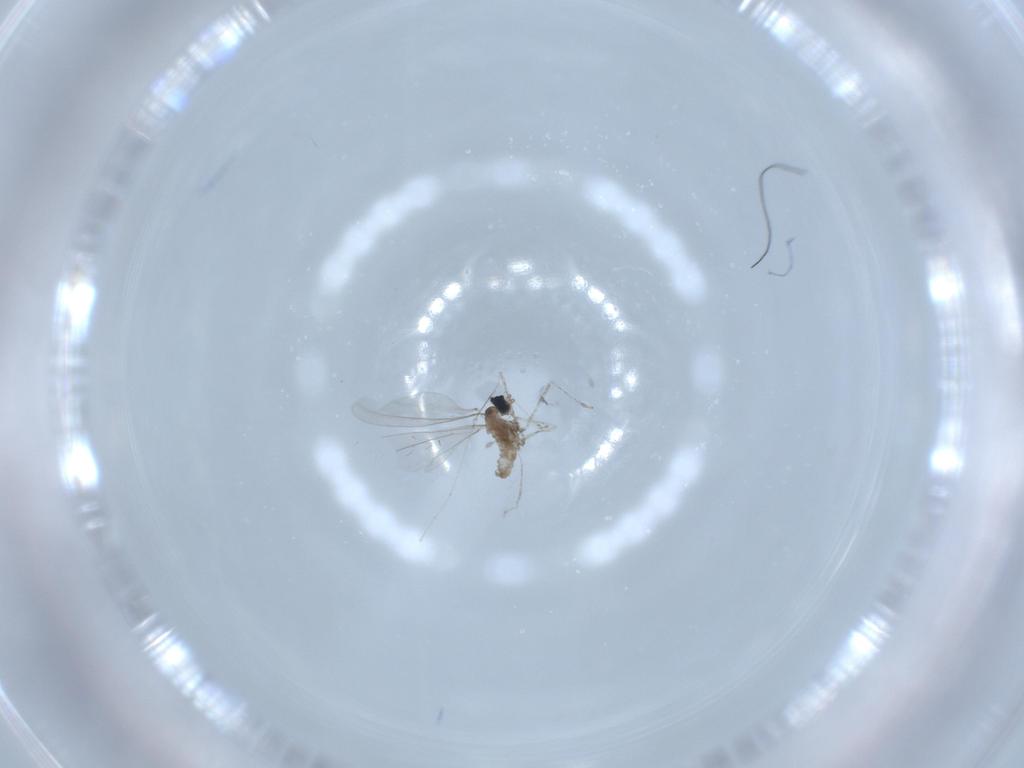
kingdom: Animalia
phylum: Arthropoda
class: Insecta
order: Diptera
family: Cecidomyiidae
